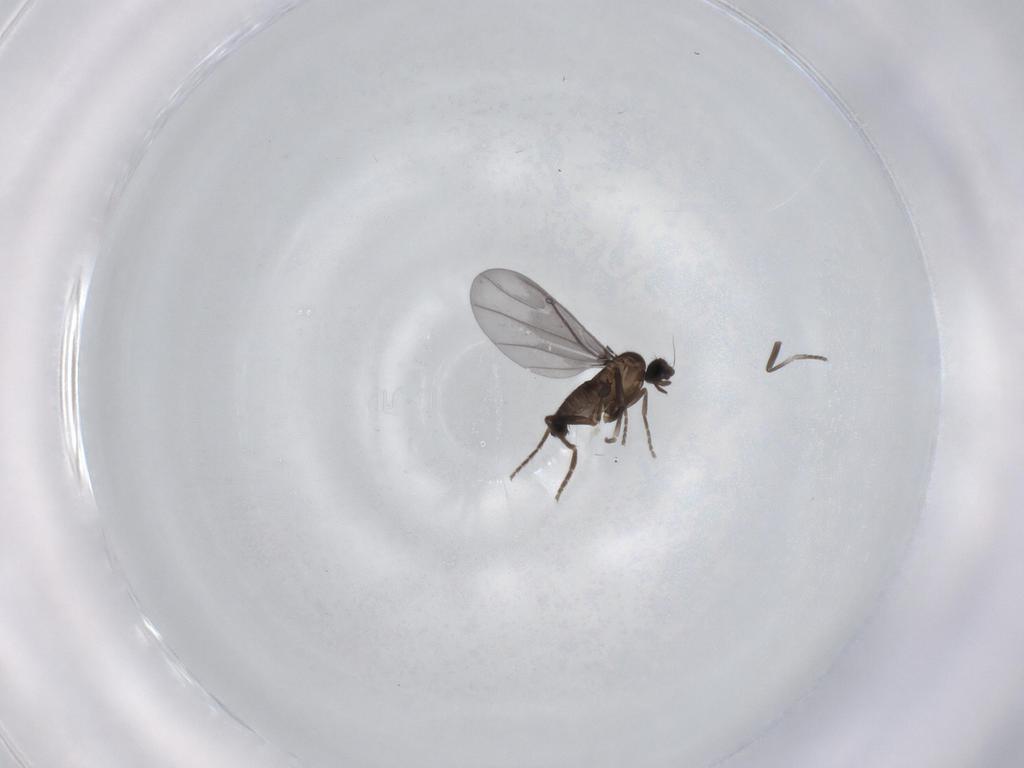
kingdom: Animalia
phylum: Arthropoda
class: Insecta
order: Diptera
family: Phoridae
